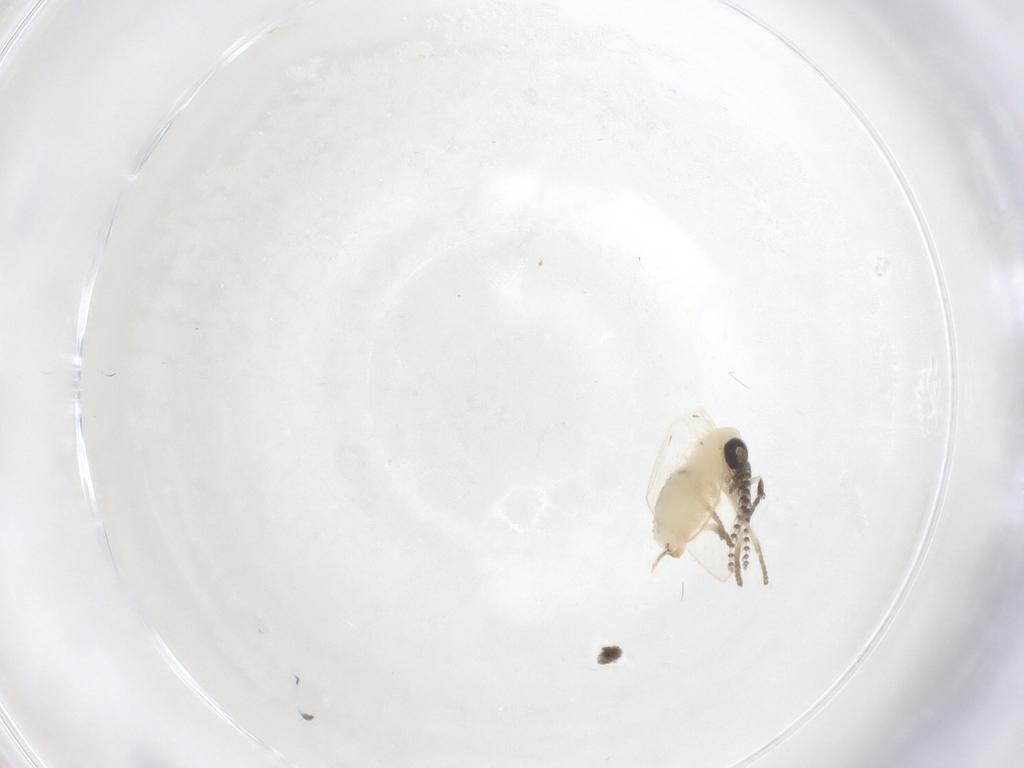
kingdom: Animalia
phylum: Arthropoda
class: Insecta
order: Diptera
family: Psychodidae
